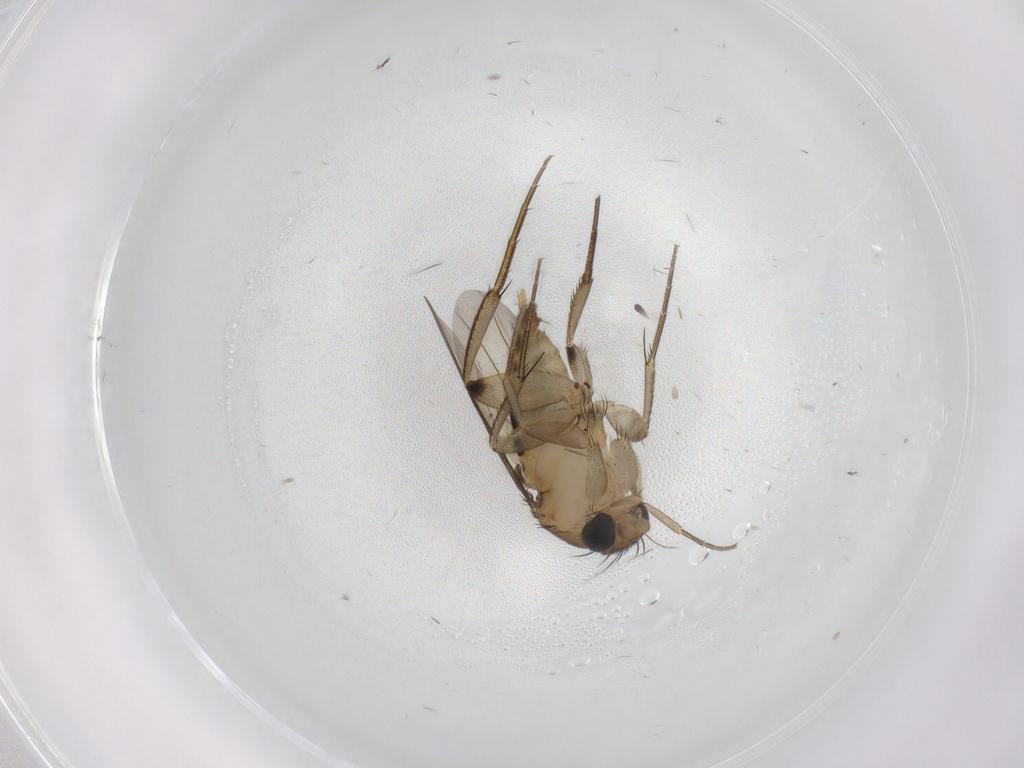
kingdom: Animalia
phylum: Arthropoda
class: Insecta
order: Diptera
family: Phoridae
